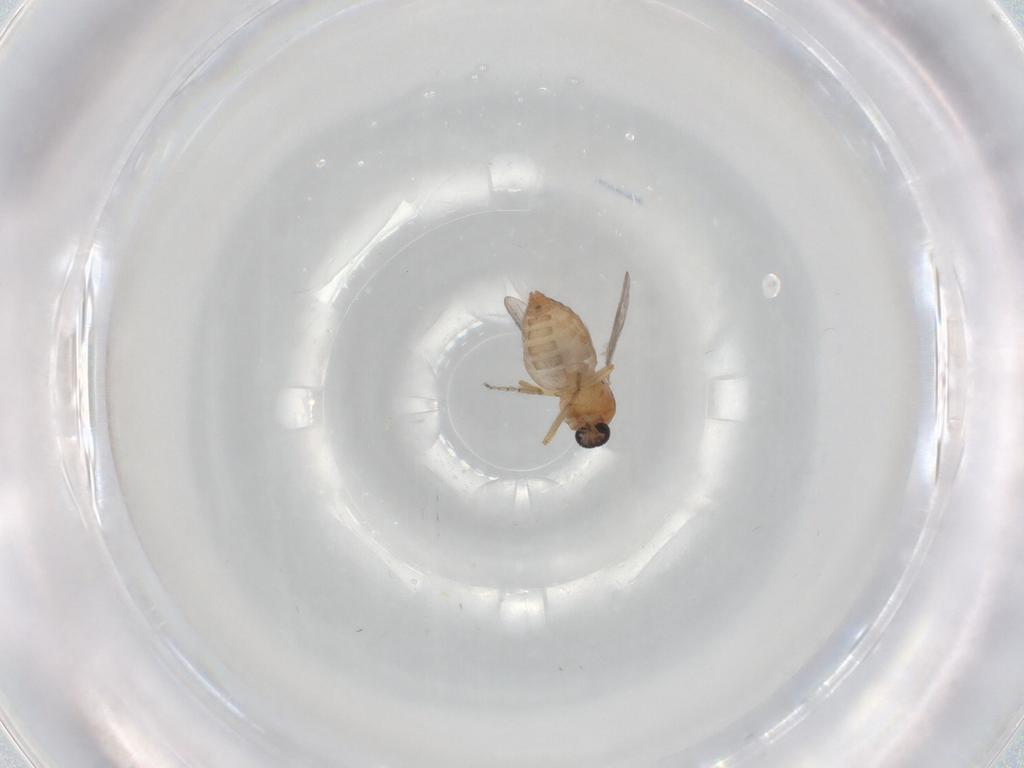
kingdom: Animalia
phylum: Arthropoda
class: Insecta
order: Diptera
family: Ceratopogonidae
